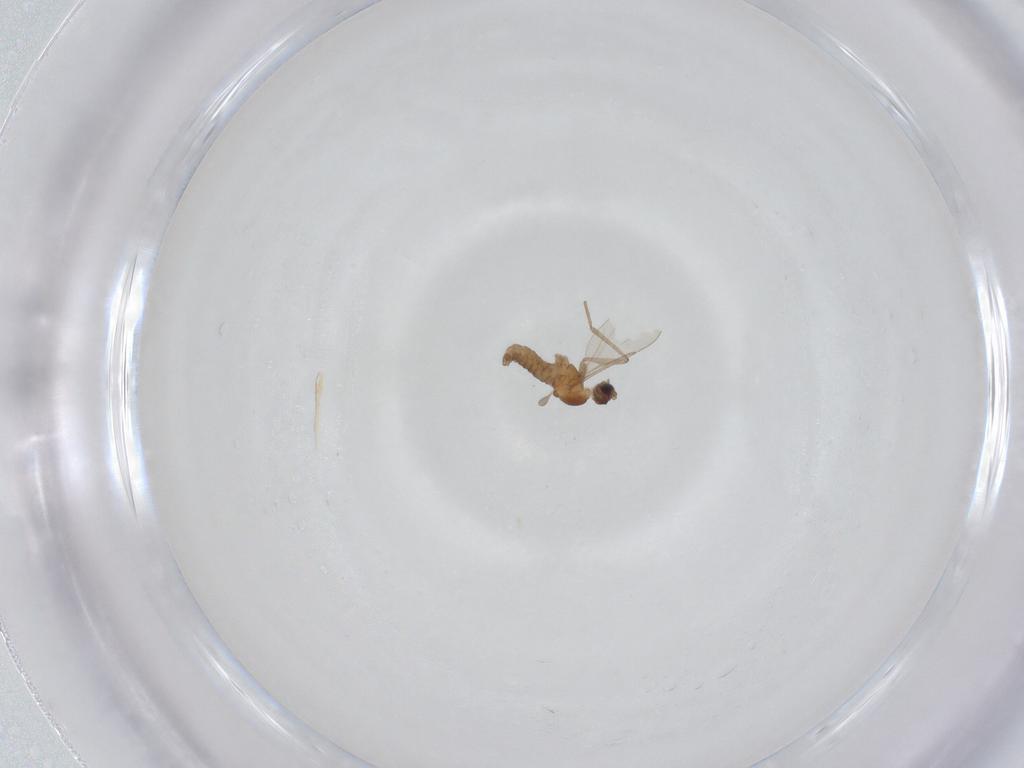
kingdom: Animalia
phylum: Arthropoda
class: Insecta
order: Diptera
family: Cecidomyiidae
